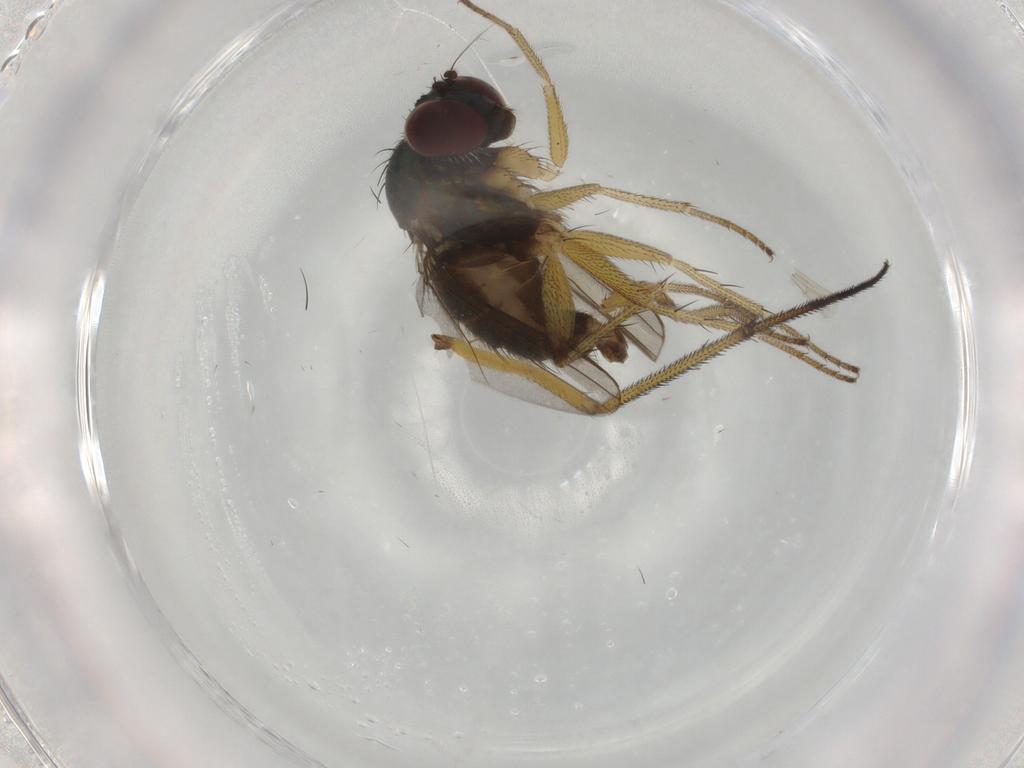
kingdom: Animalia
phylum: Arthropoda
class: Insecta
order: Diptera
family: Dolichopodidae
